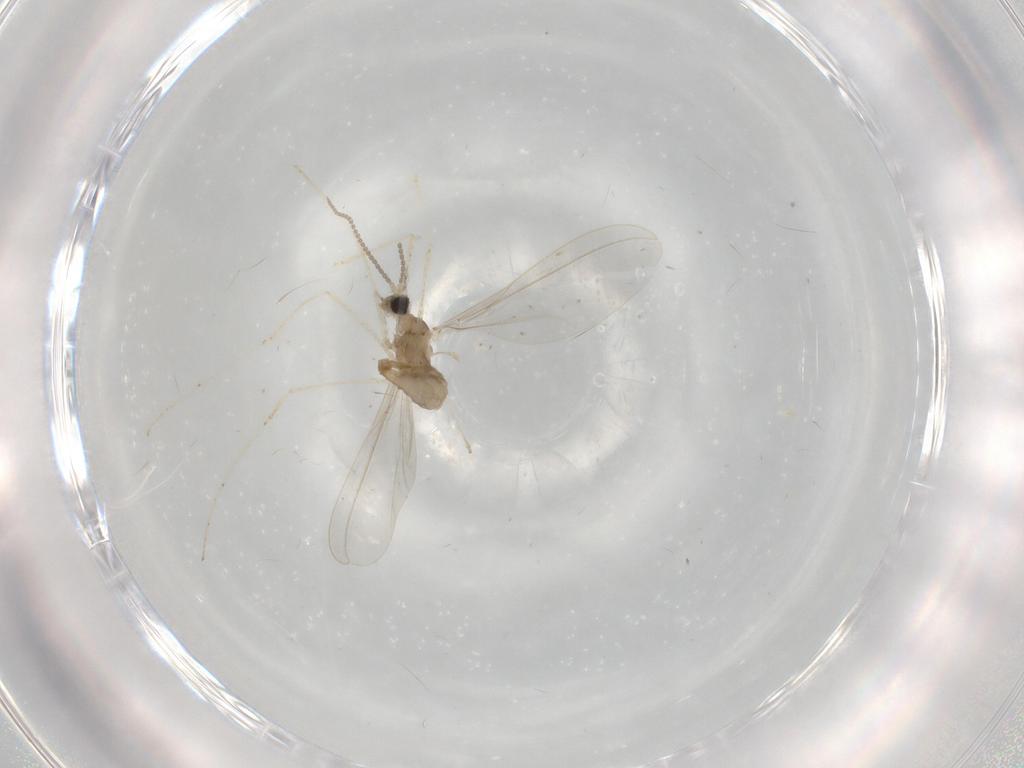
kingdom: Animalia
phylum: Arthropoda
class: Insecta
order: Diptera
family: Cecidomyiidae
